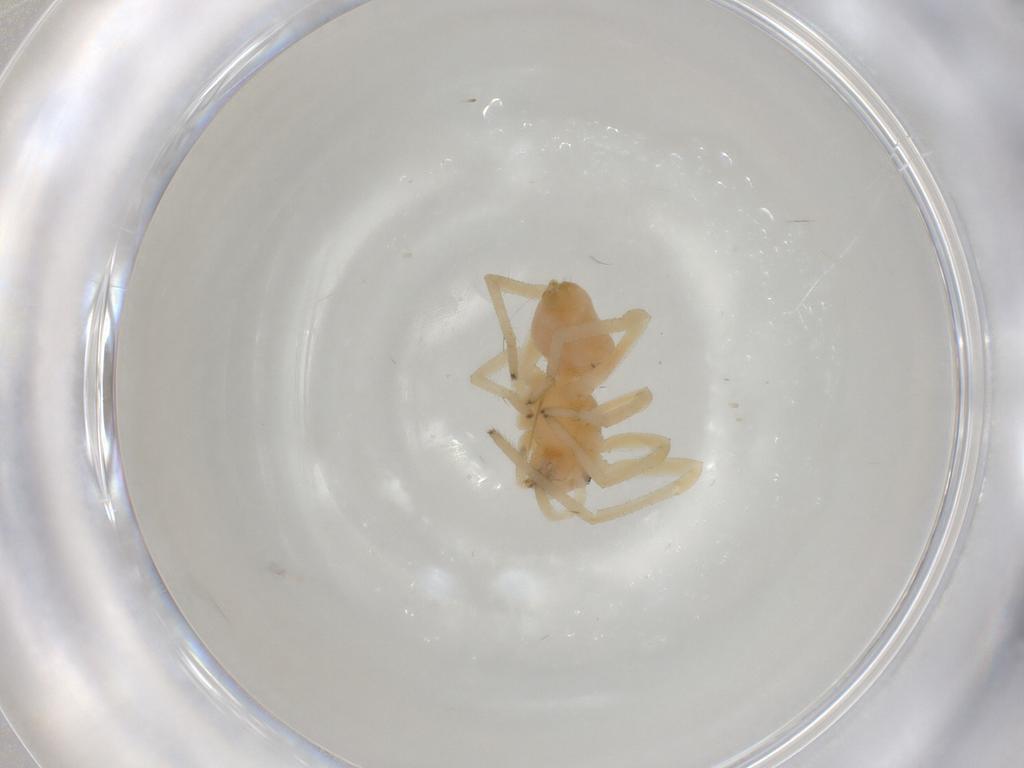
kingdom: Animalia
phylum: Arthropoda
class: Arachnida
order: Araneae
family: Cheiracanthiidae
